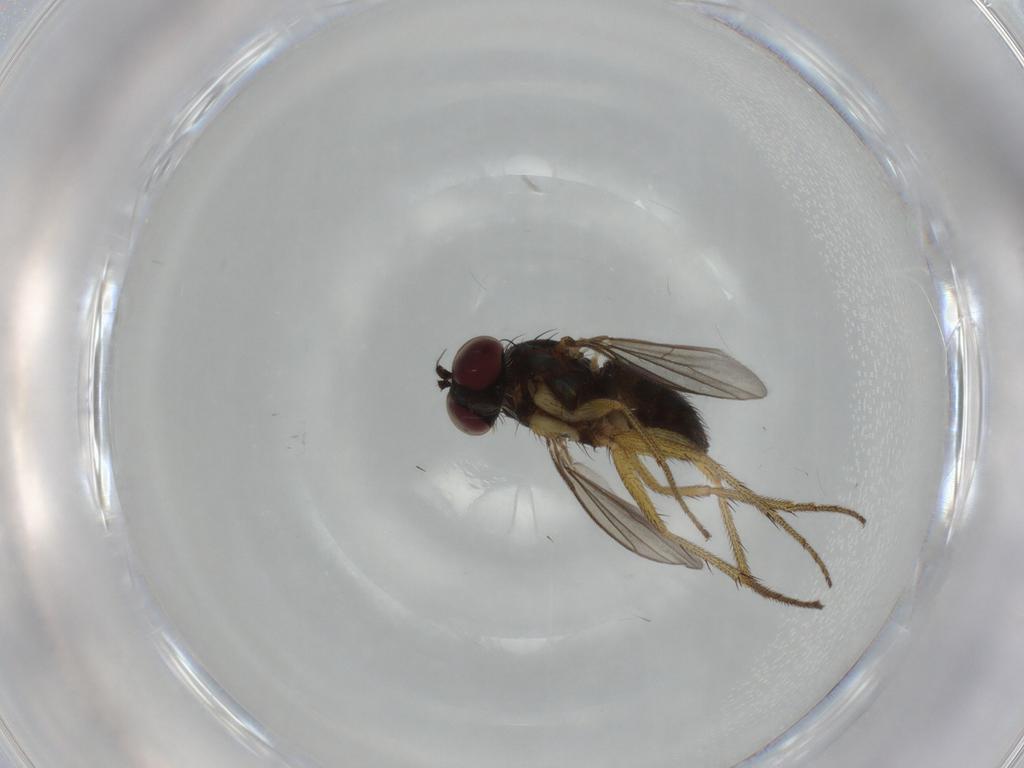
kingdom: Animalia
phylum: Arthropoda
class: Insecta
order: Diptera
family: Dolichopodidae
